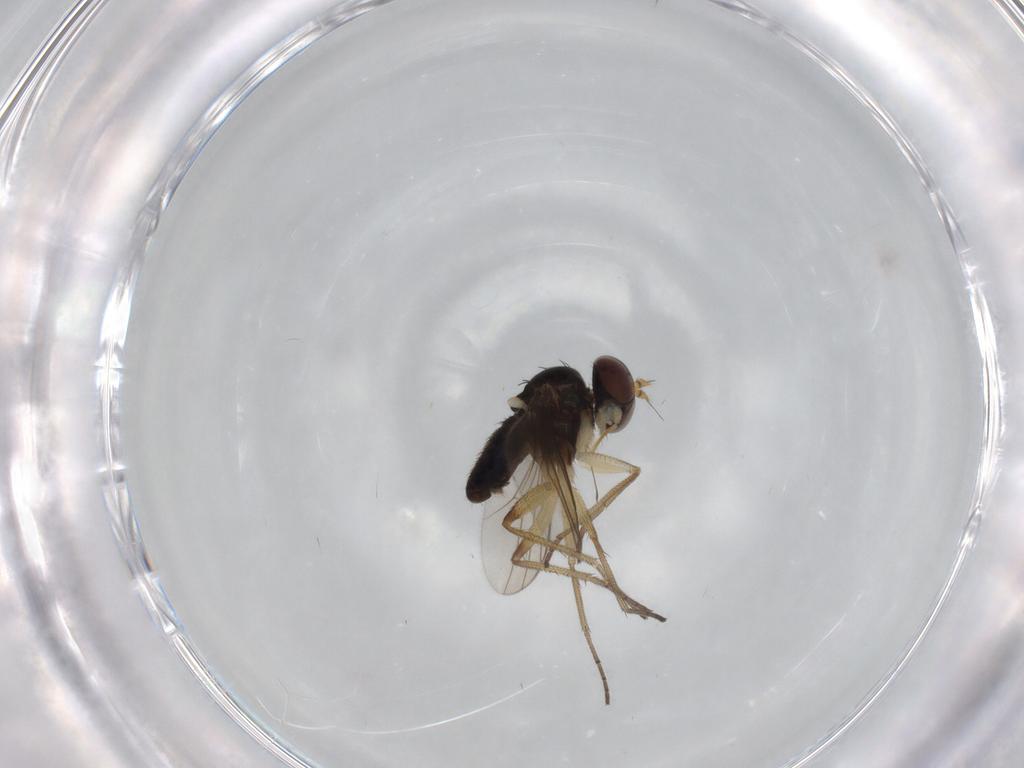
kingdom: Animalia
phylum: Arthropoda
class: Insecta
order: Diptera
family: Dolichopodidae
